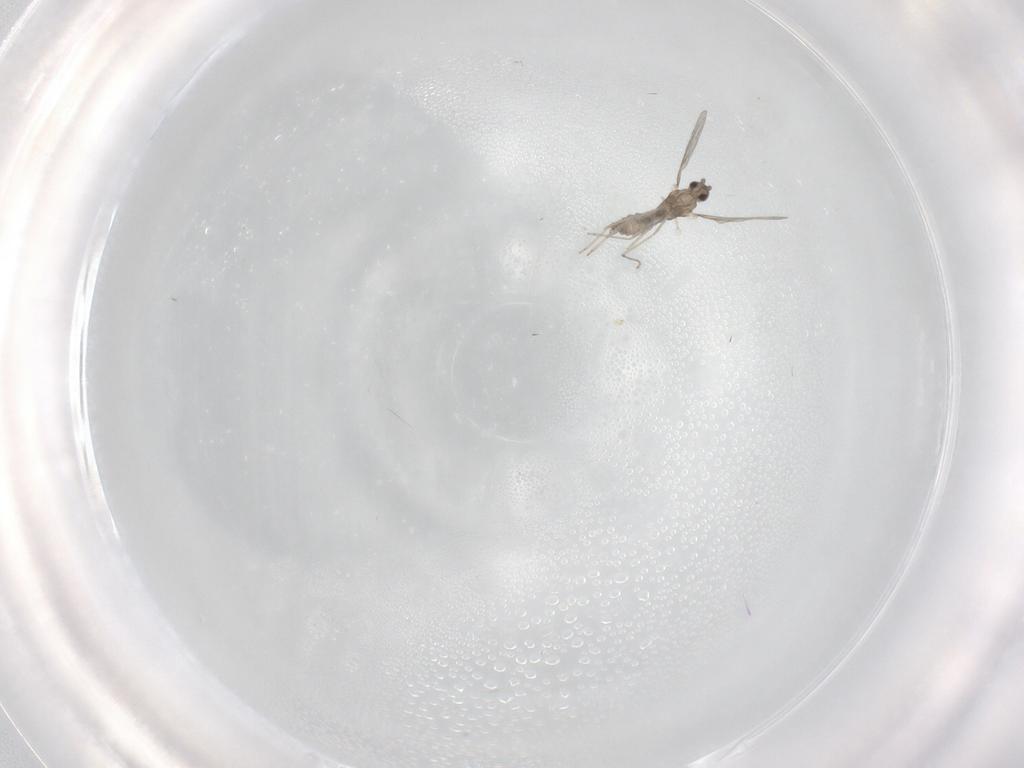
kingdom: Animalia
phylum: Arthropoda
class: Insecta
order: Diptera
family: Cecidomyiidae
